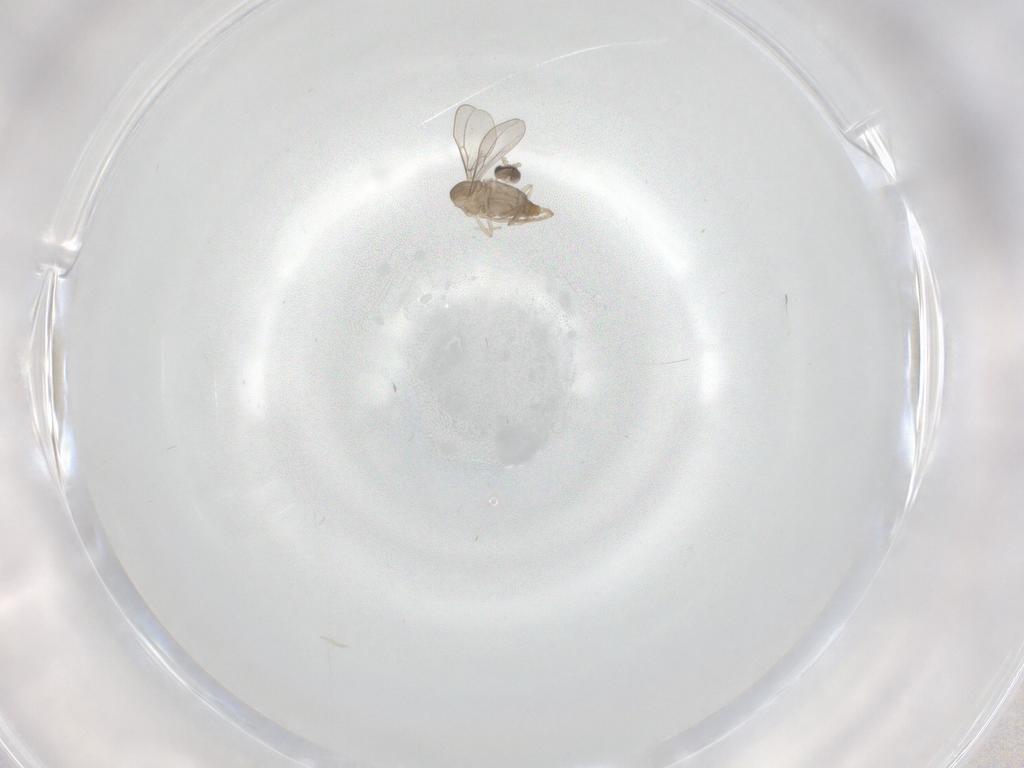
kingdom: Animalia
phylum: Arthropoda
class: Insecta
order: Diptera
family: Cecidomyiidae
